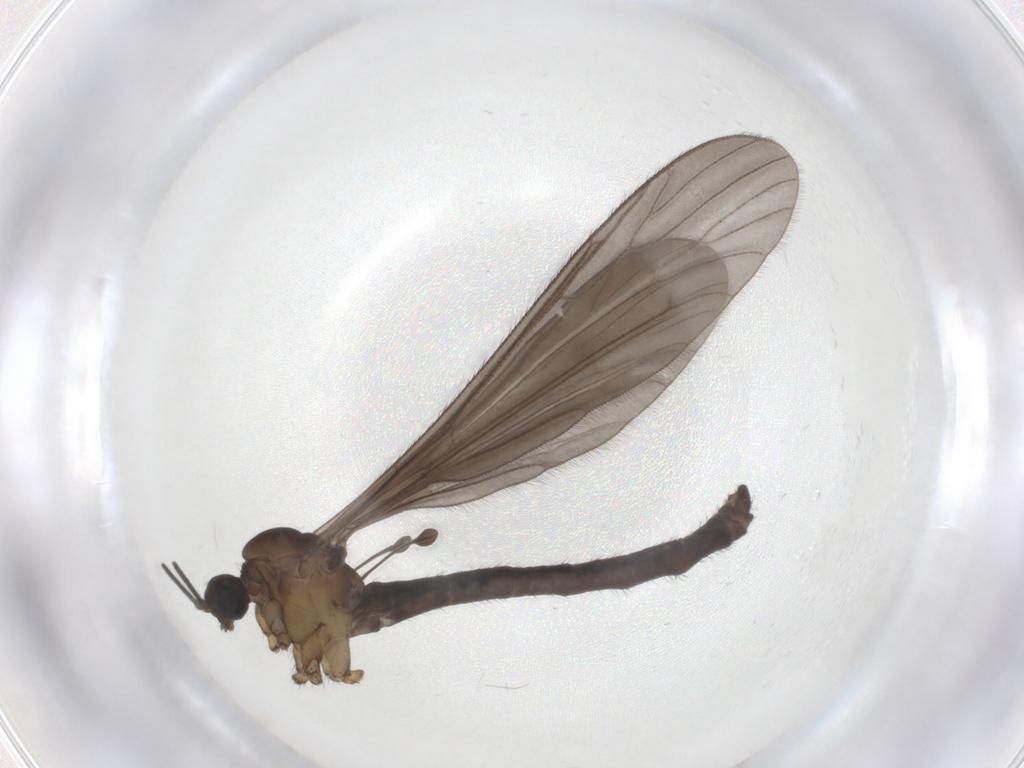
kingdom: Animalia
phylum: Arthropoda
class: Insecta
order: Diptera
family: Limoniidae
